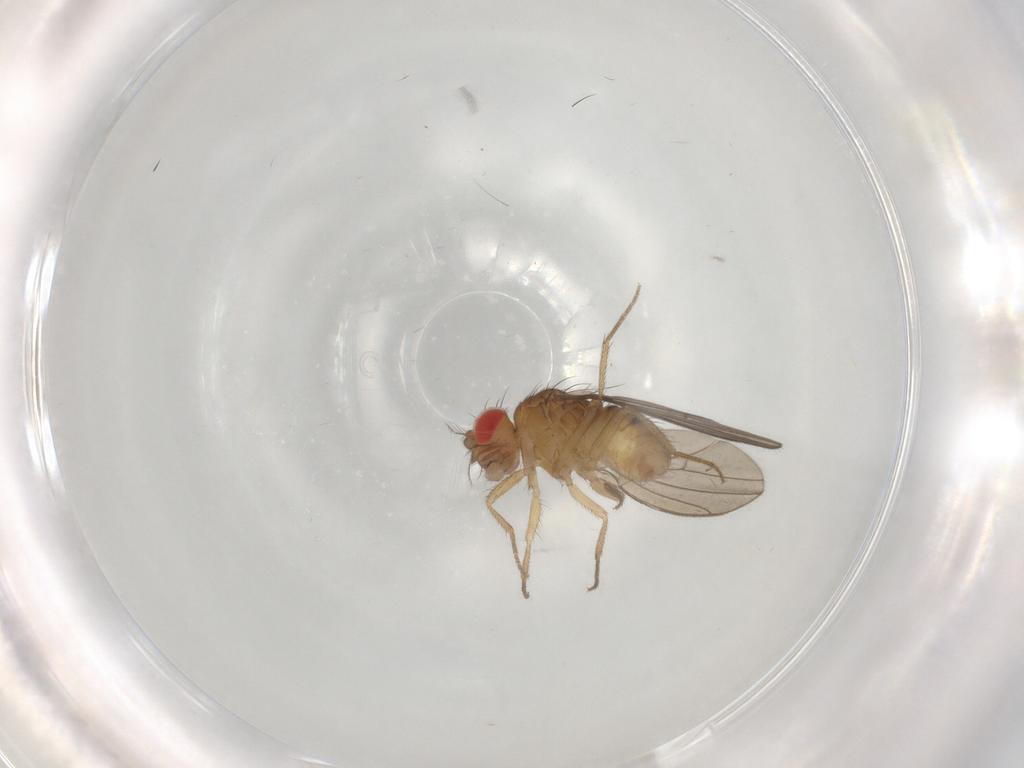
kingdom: Animalia
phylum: Arthropoda
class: Insecta
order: Diptera
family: Drosophilidae
